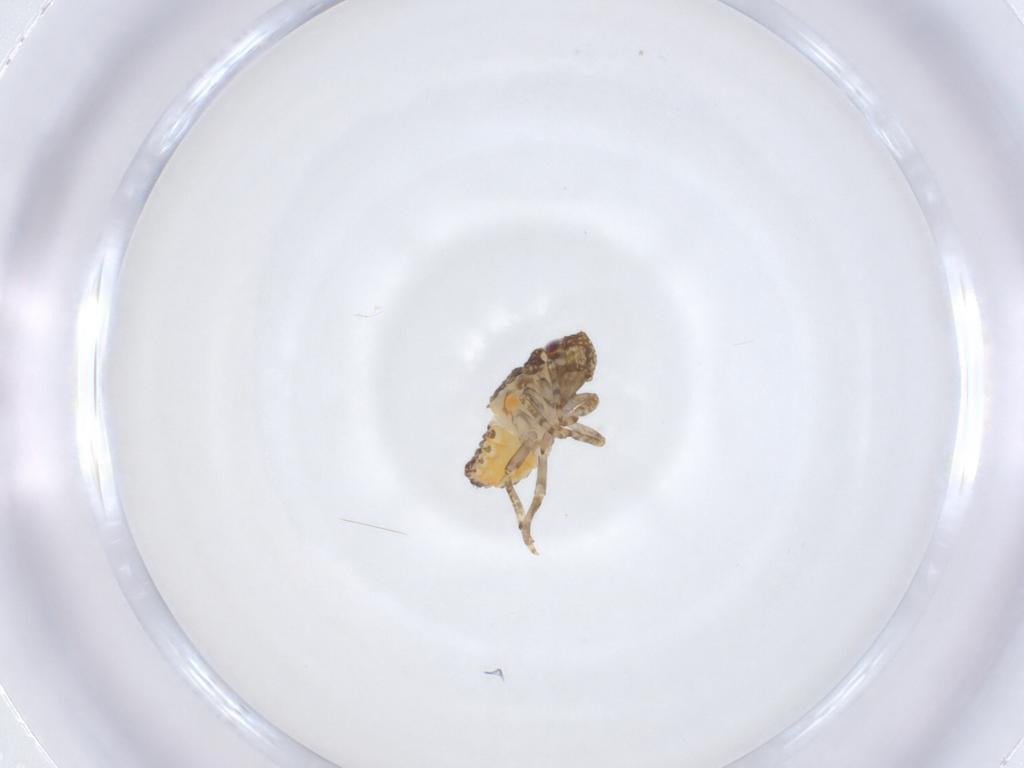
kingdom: Animalia
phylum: Arthropoda
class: Insecta
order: Hemiptera
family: Nogodinidae
